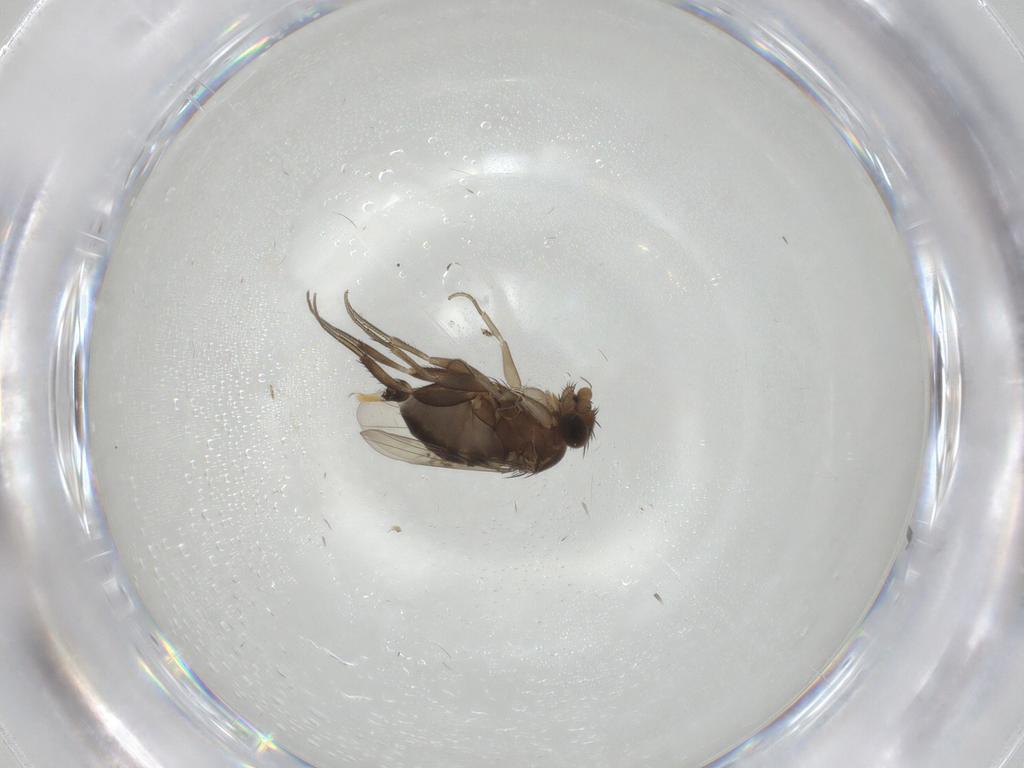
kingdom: Animalia
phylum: Arthropoda
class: Insecta
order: Diptera
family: Phoridae
